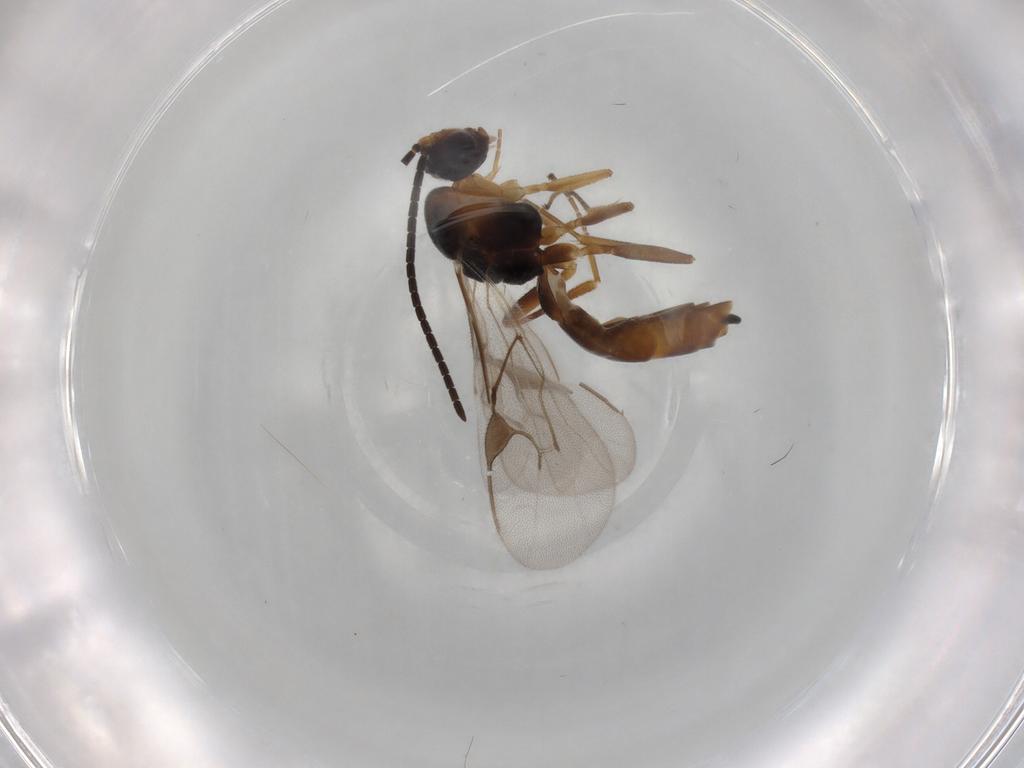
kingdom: Animalia
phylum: Arthropoda
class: Insecta
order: Hymenoptera
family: Braconidae
